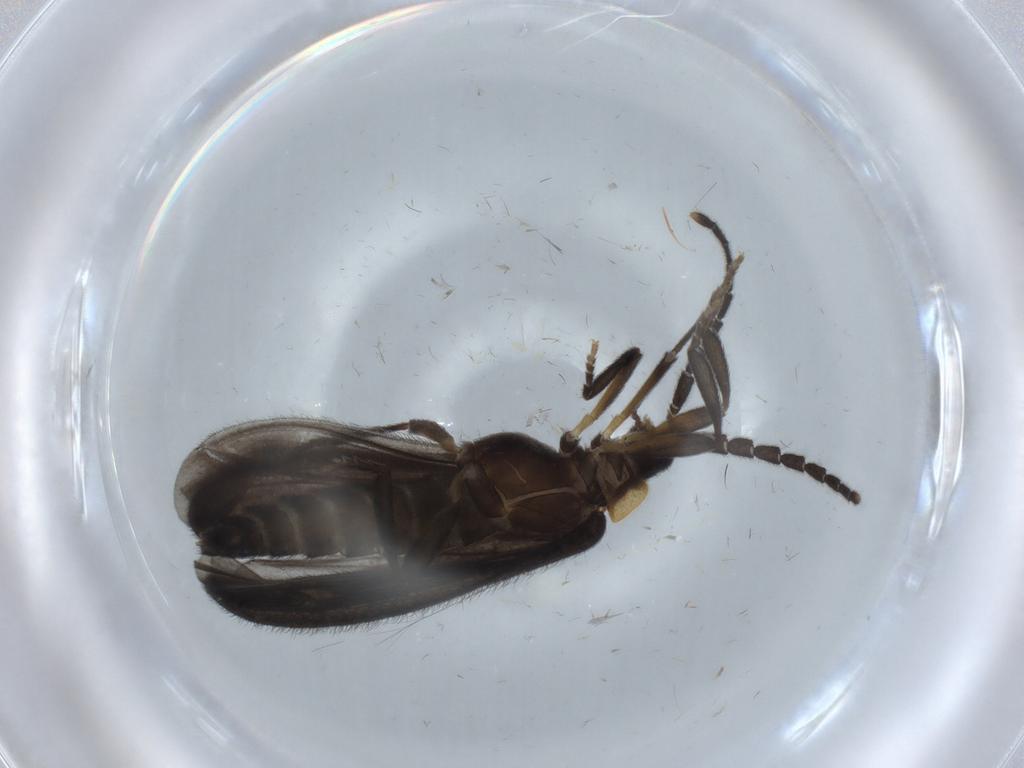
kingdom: Animalia
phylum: Arthropoda
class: Insecta
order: Coleoptera
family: Lycidae
